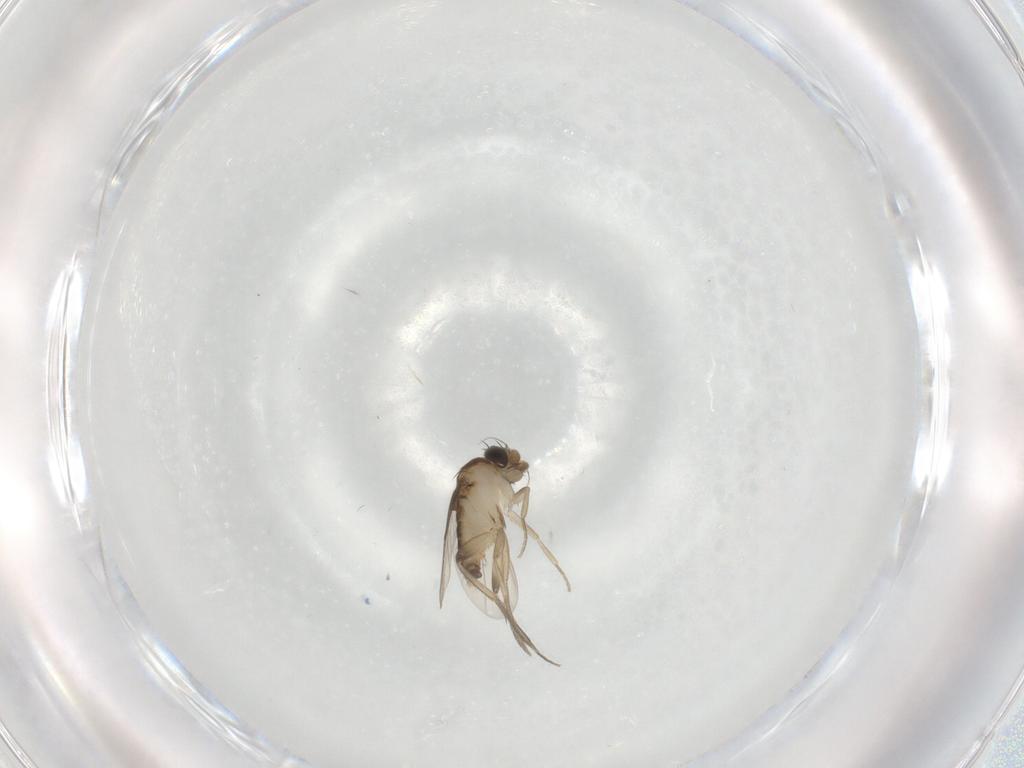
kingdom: Animalia
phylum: Arthropoda
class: Insecta
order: Diptera
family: Phoridae
